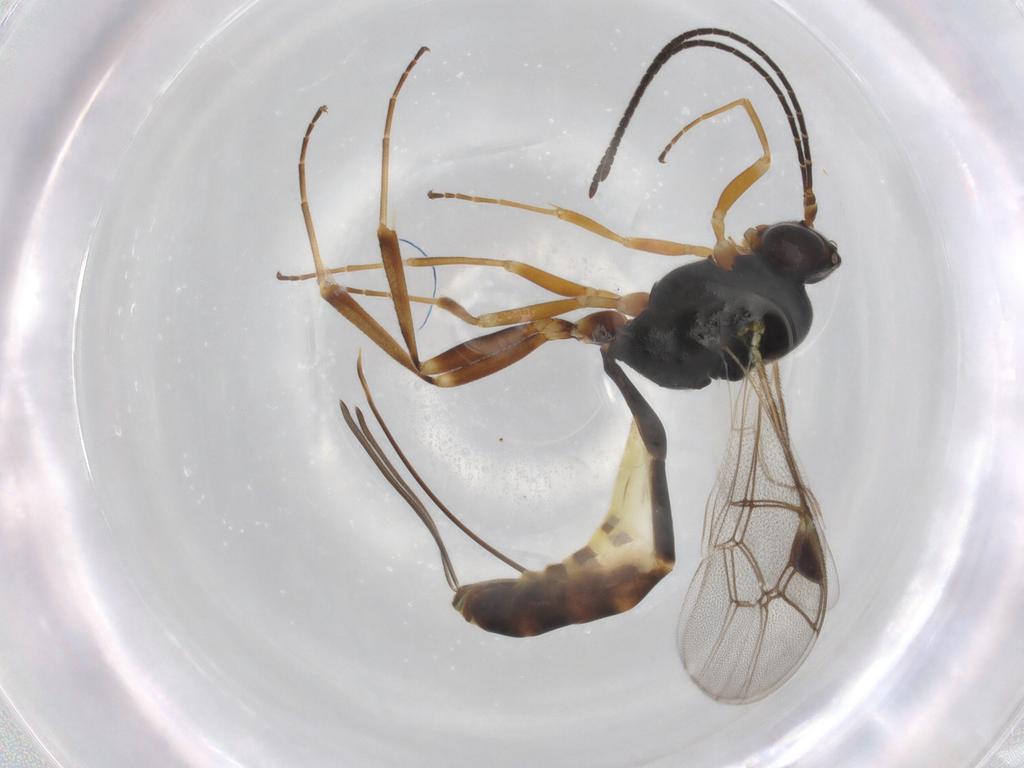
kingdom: Animalia
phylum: Arthropoda
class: Insecta
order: Hymenoptera
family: Ichneumonidae
